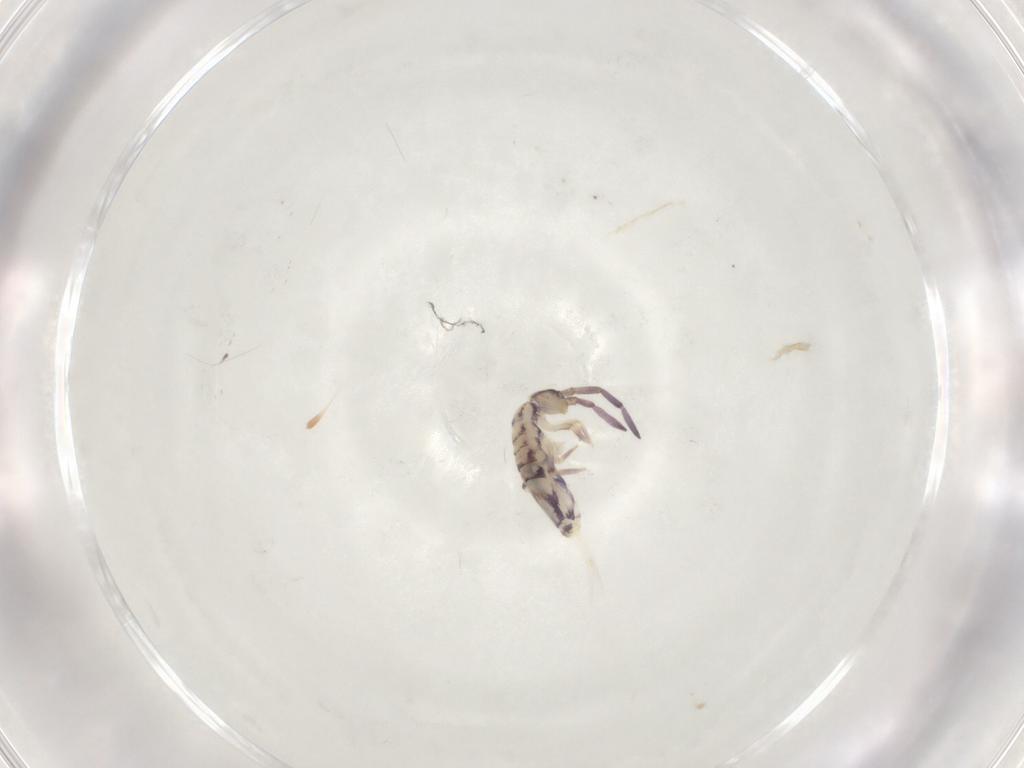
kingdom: Animalia
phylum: Arthropoda
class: Collembola
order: Entomobryomorpha
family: Entomobryidae
